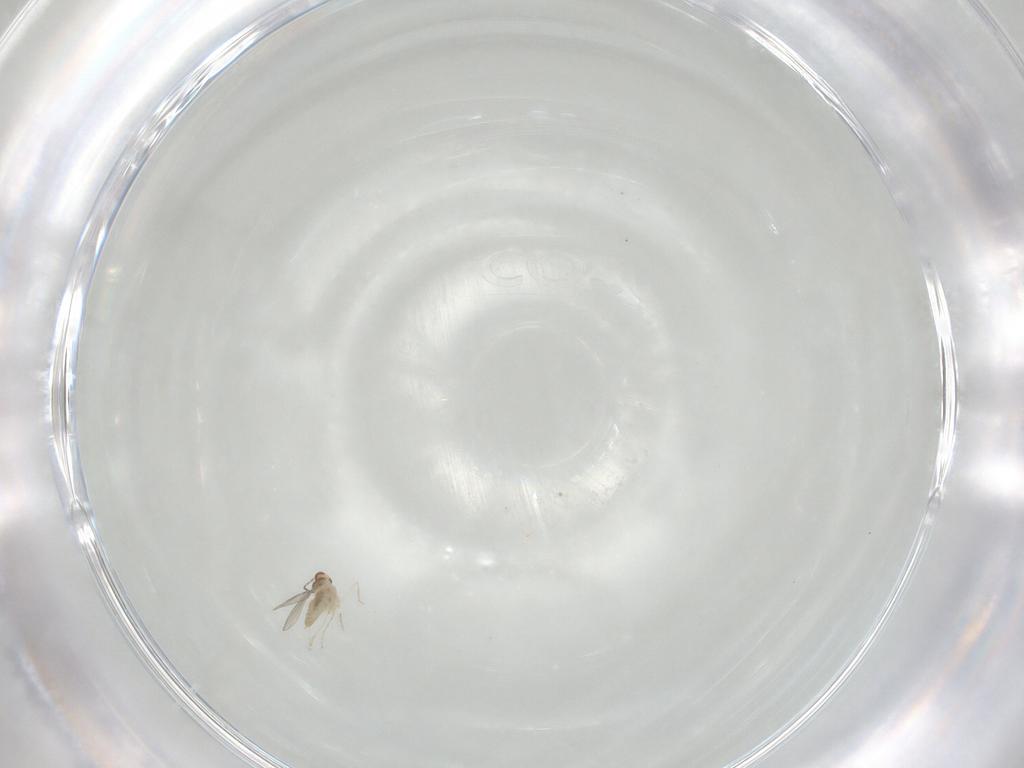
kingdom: Animalia
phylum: Arthropoda
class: Insecta
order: Diptera
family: Cecidomyiidae
